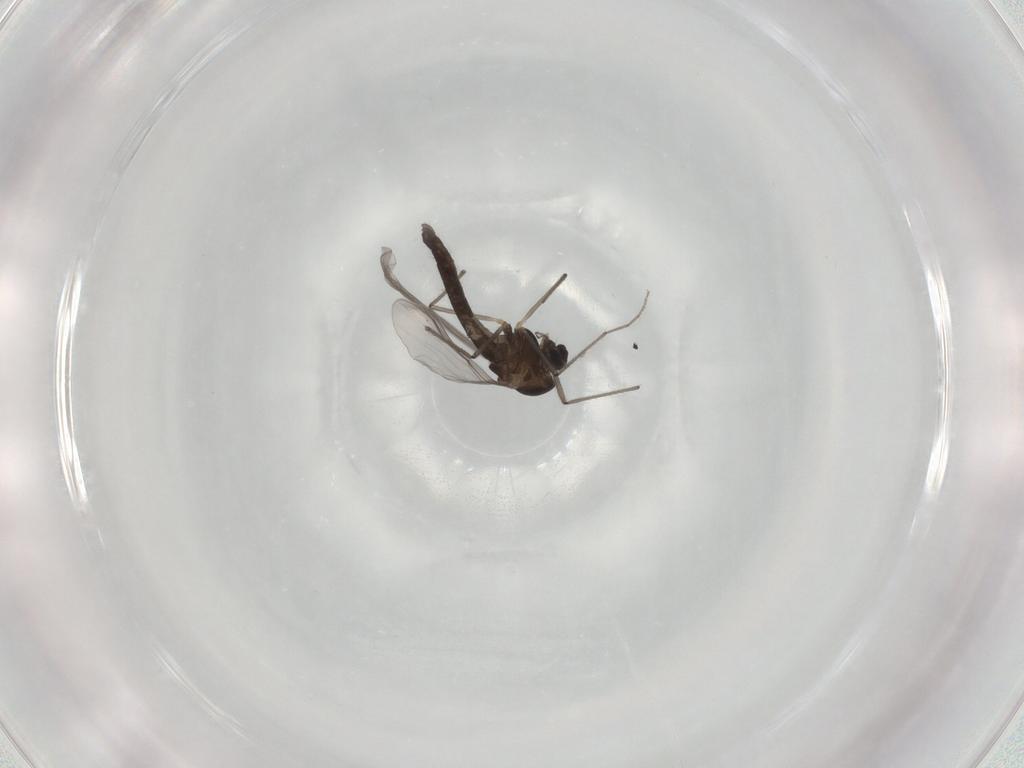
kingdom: Animalia
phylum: Arthropoda
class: Insecta
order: Diptera
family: Chironomidae
